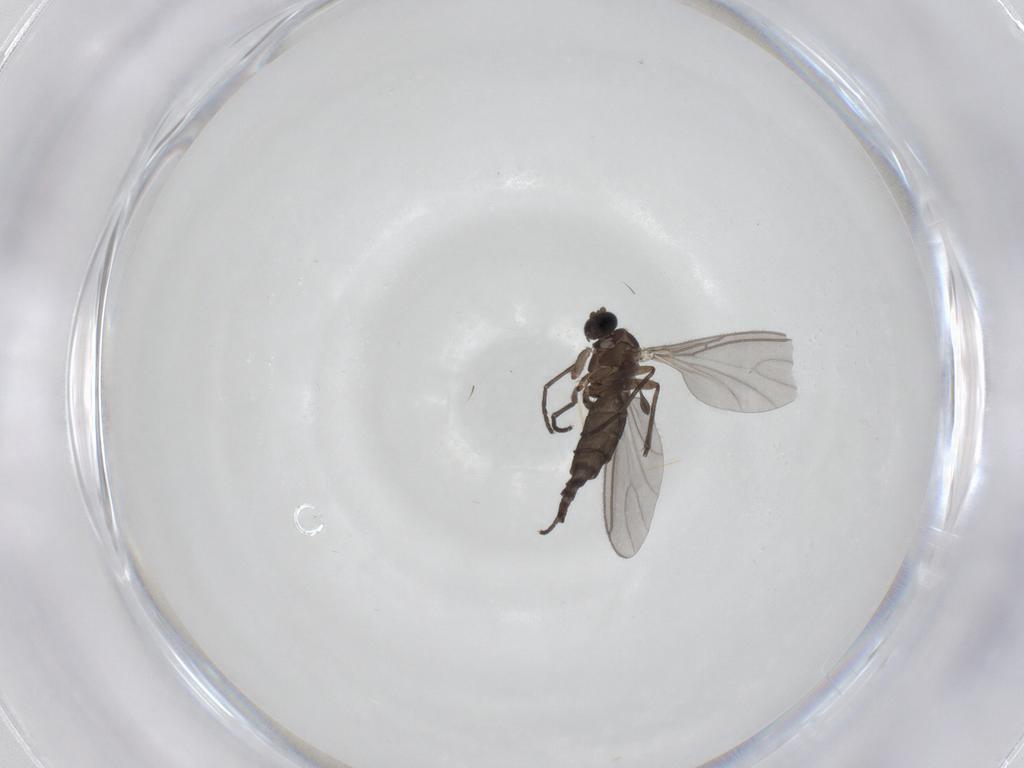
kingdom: Animalia
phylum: Arthropoda
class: Insecta
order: Diptera
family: Sciaridae
